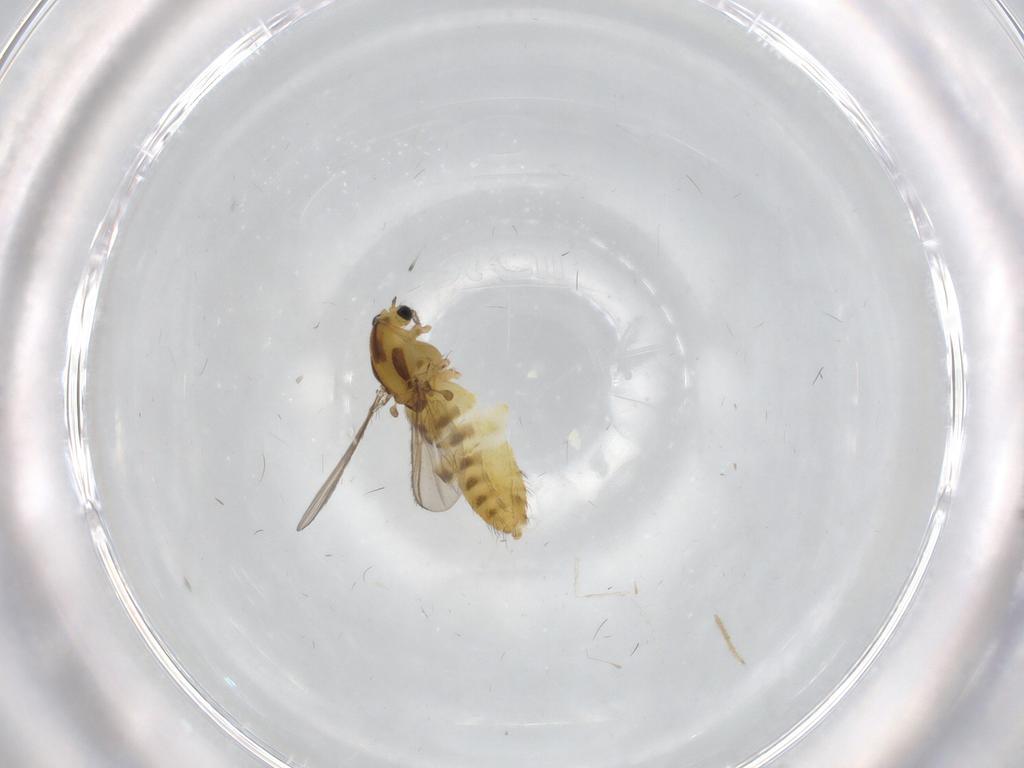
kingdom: Animalia
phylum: Arthropoda
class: Insecta
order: Diptera
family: Chironomidae
